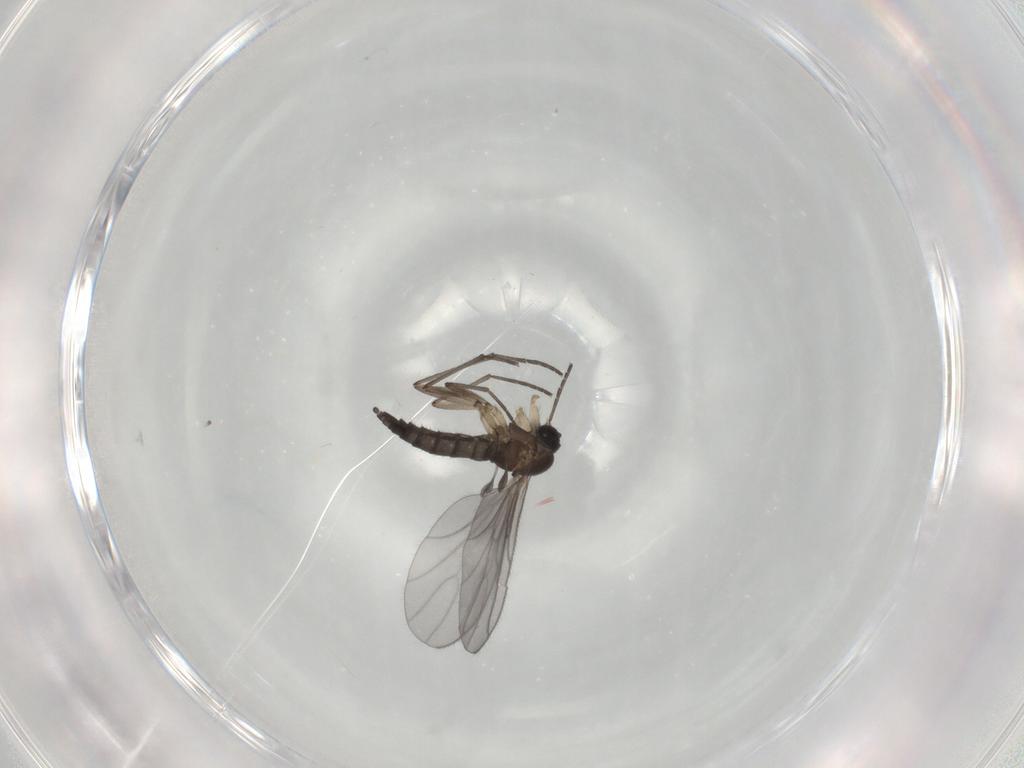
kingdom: Animalia
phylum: Arthropoda
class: Insecta
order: Diptera
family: Sciaridae
